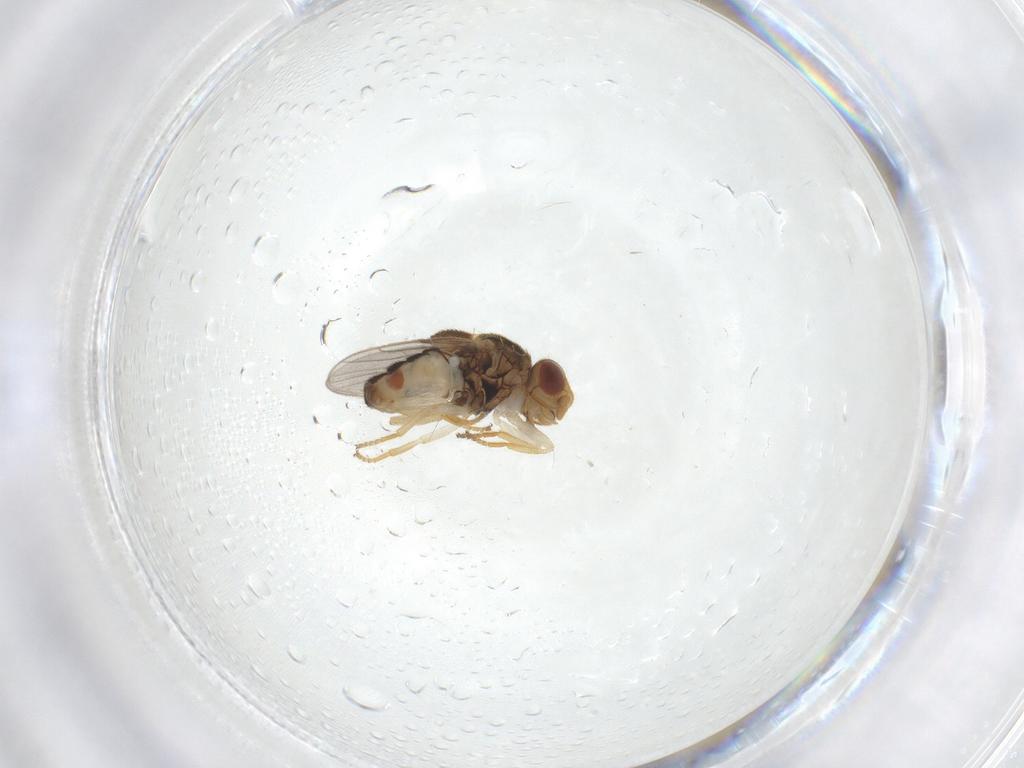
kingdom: Animalia
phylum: Arthropoda
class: Insecta
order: Diptera
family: Chloropidae
